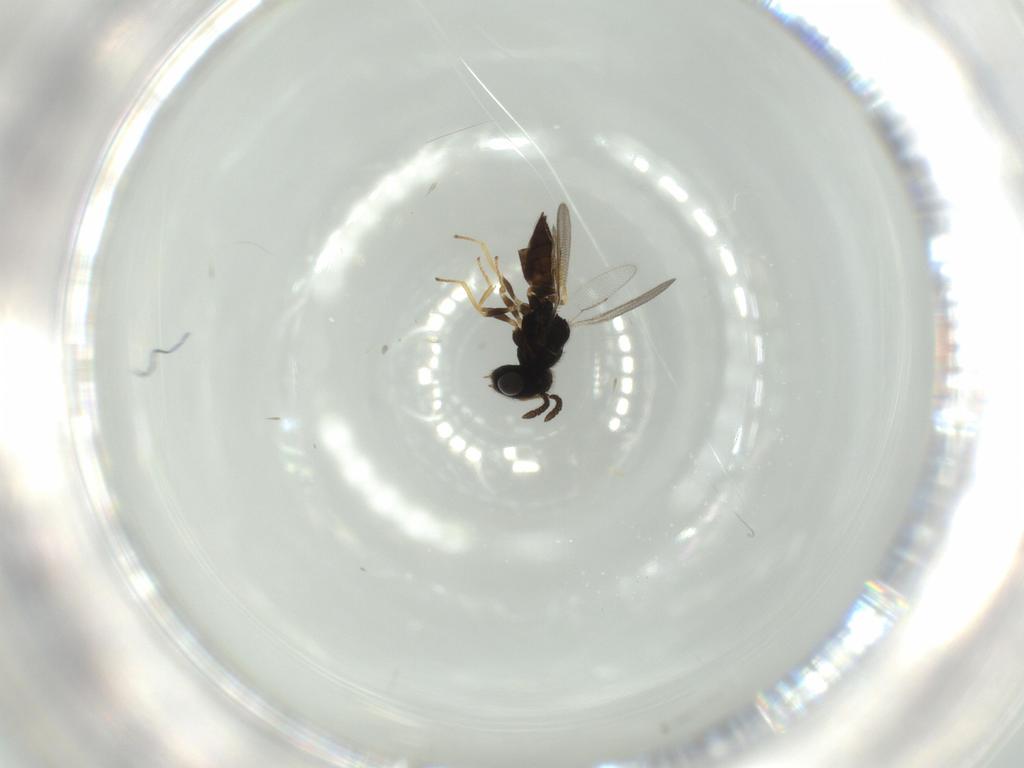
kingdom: Animalia
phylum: Arthropoda
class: Insecta
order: Hymenoptera
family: Pteromalidae
